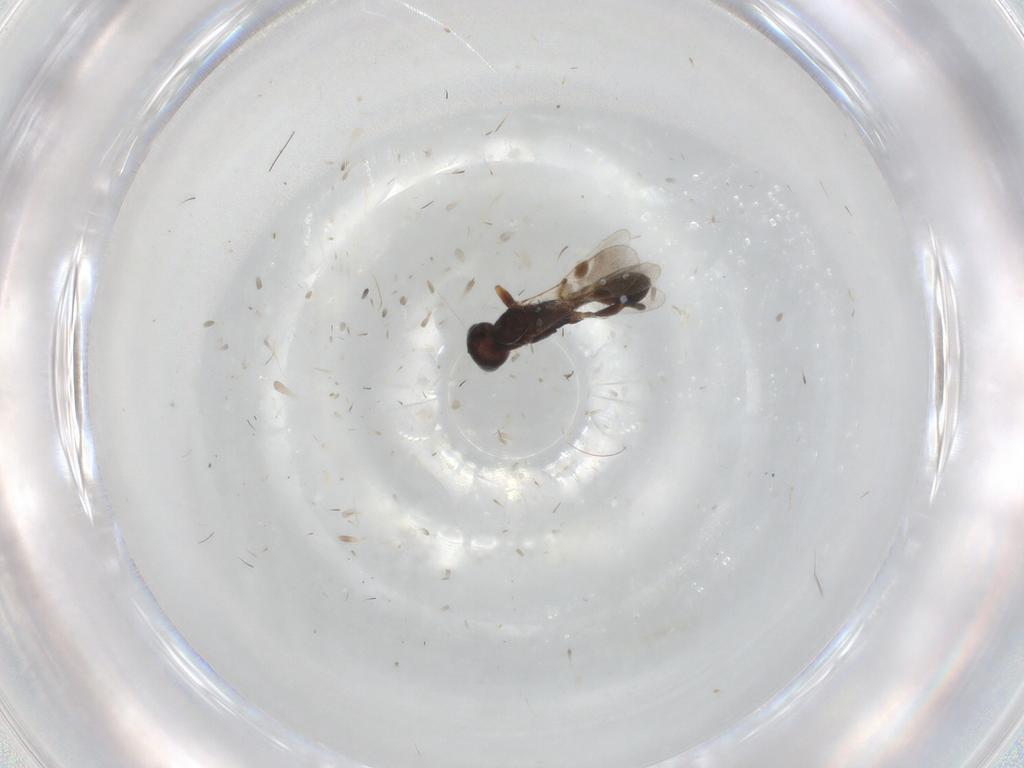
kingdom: Animalia
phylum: Arthropoda
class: Insecta
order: Hymenoptera
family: Braconidae
